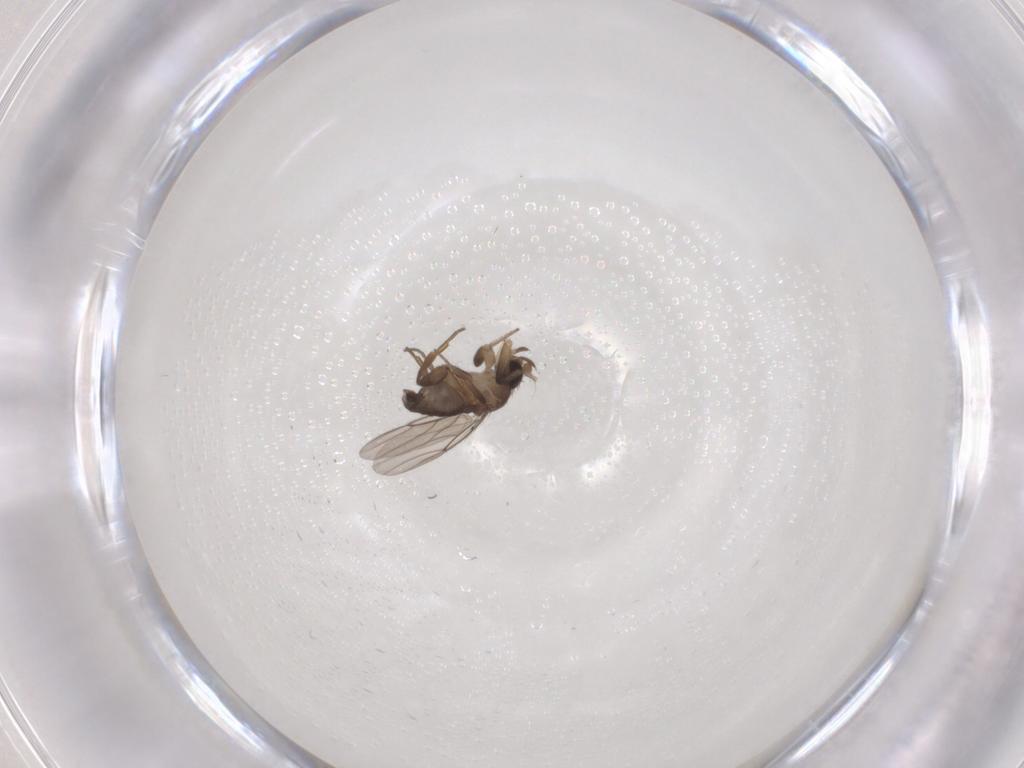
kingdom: Animalia
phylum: Arthropoda
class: Insecta
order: Diptera
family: Phoridae
